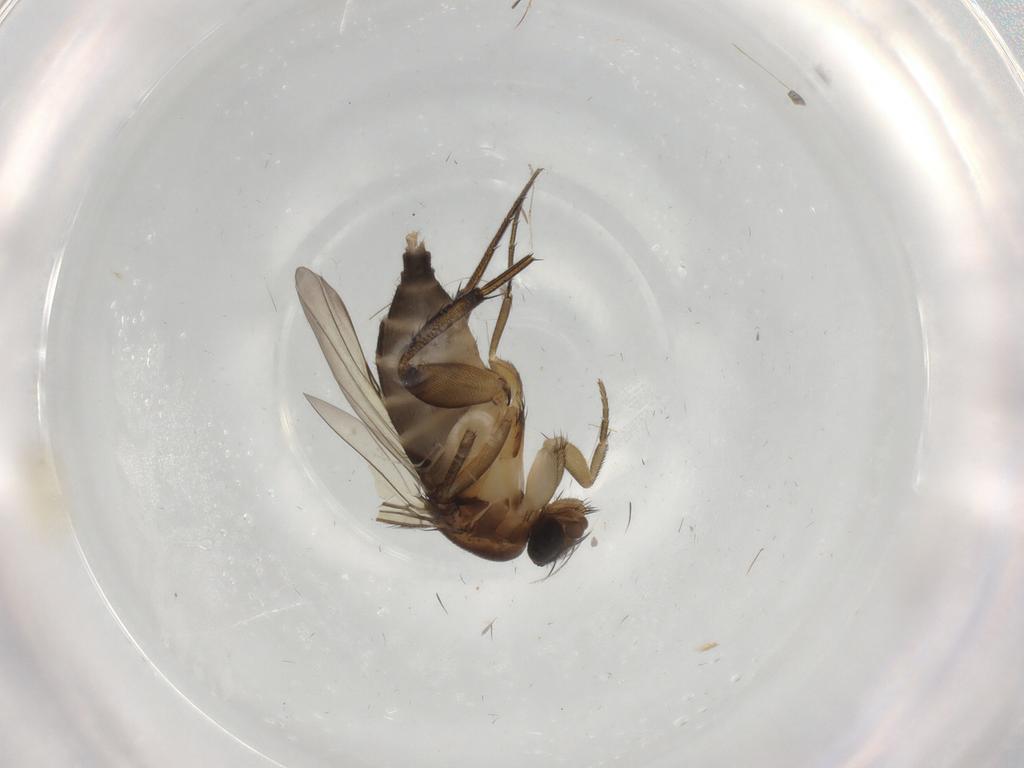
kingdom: Animalia
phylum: Arthropoda
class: Insecta
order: Diptera
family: Phoridae
